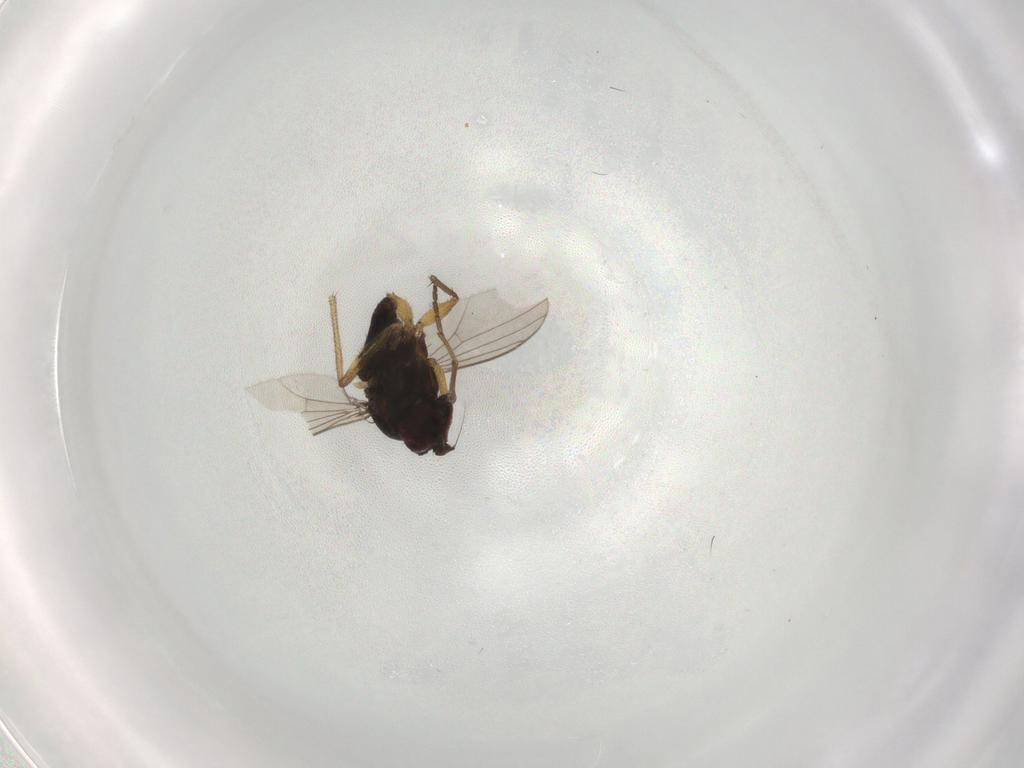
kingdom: Animalia
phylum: Arthropoda
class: Insecta
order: Diptera
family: Dolichopodidae
